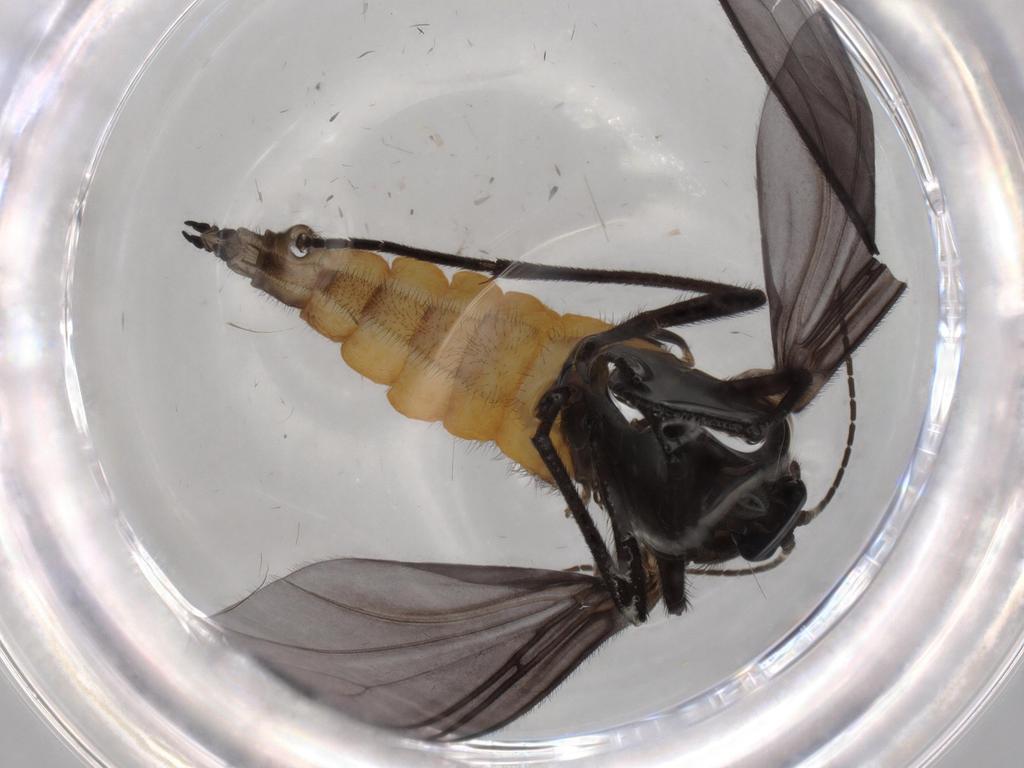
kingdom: Animalia
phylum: Arthropoda
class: Insecta
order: Diptera
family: Sciaridae
